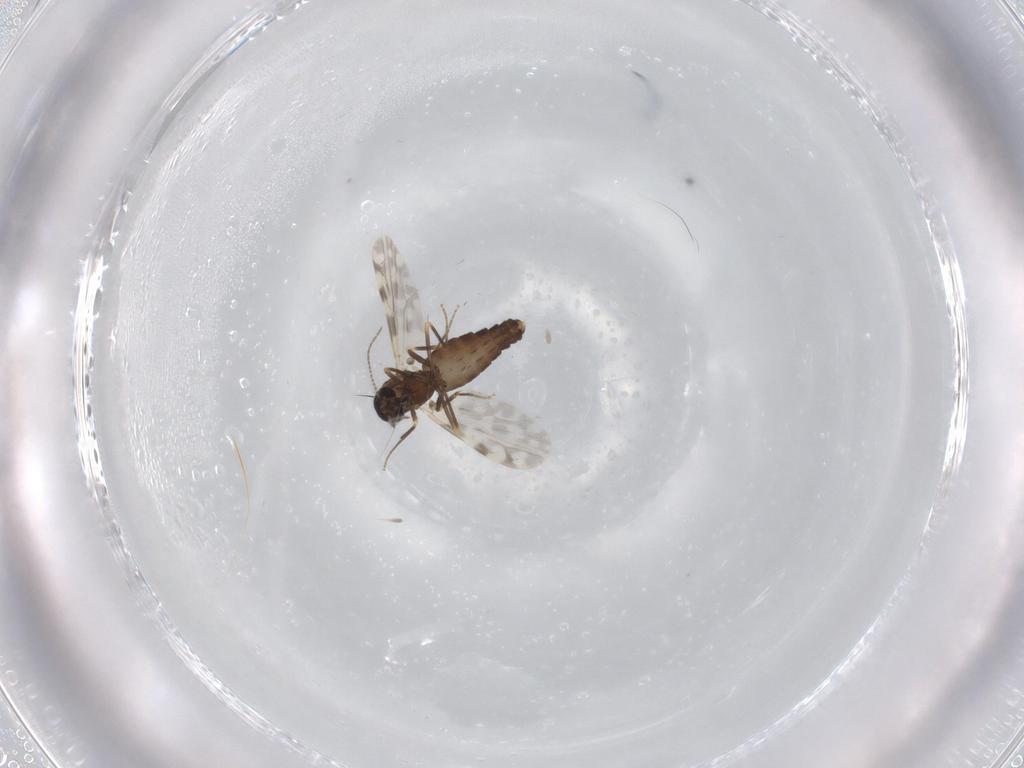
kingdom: Animalia
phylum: Arthropoda
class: Insecta
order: Diptera
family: Ceratopogonidae
